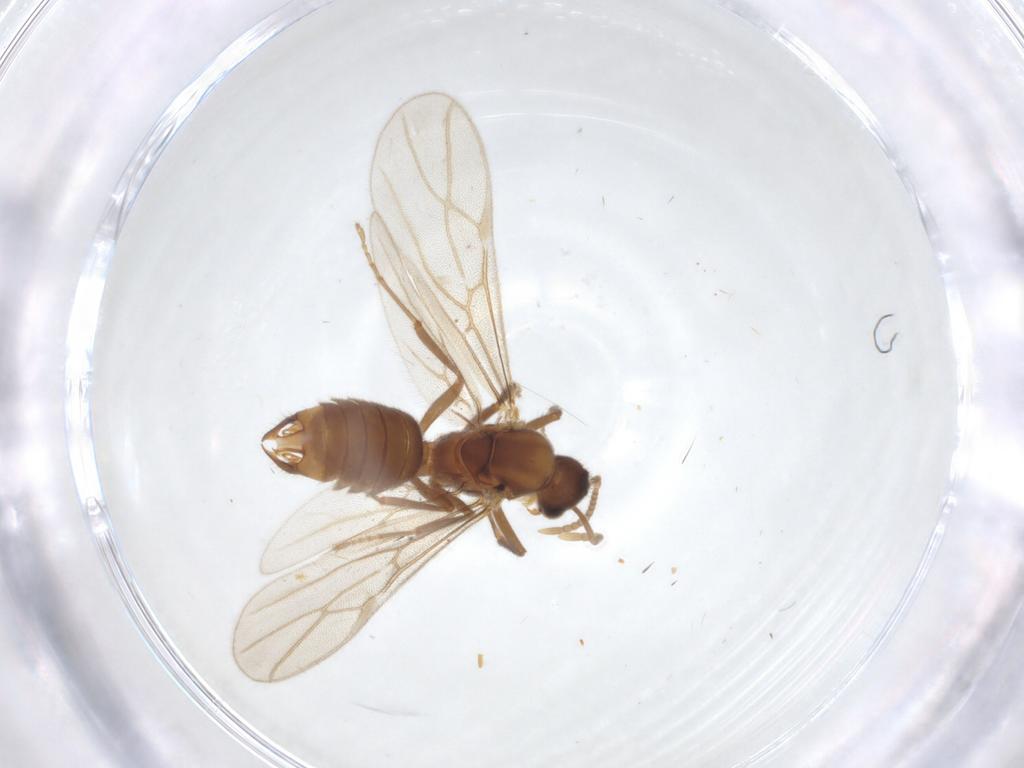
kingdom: Animalia
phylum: Arthropoda
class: Insecta
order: Hymenoptera
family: Formicidae
